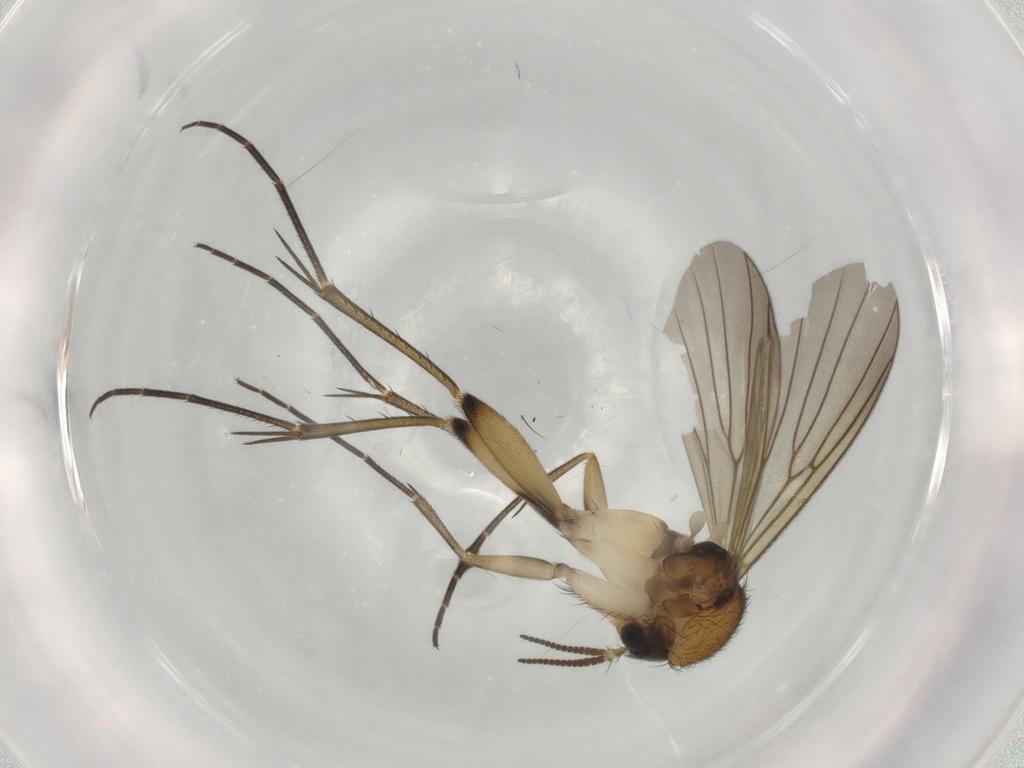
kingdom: Animalia
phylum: Arthropoda
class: Insecta
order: Diptera
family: Mycetophilidae
